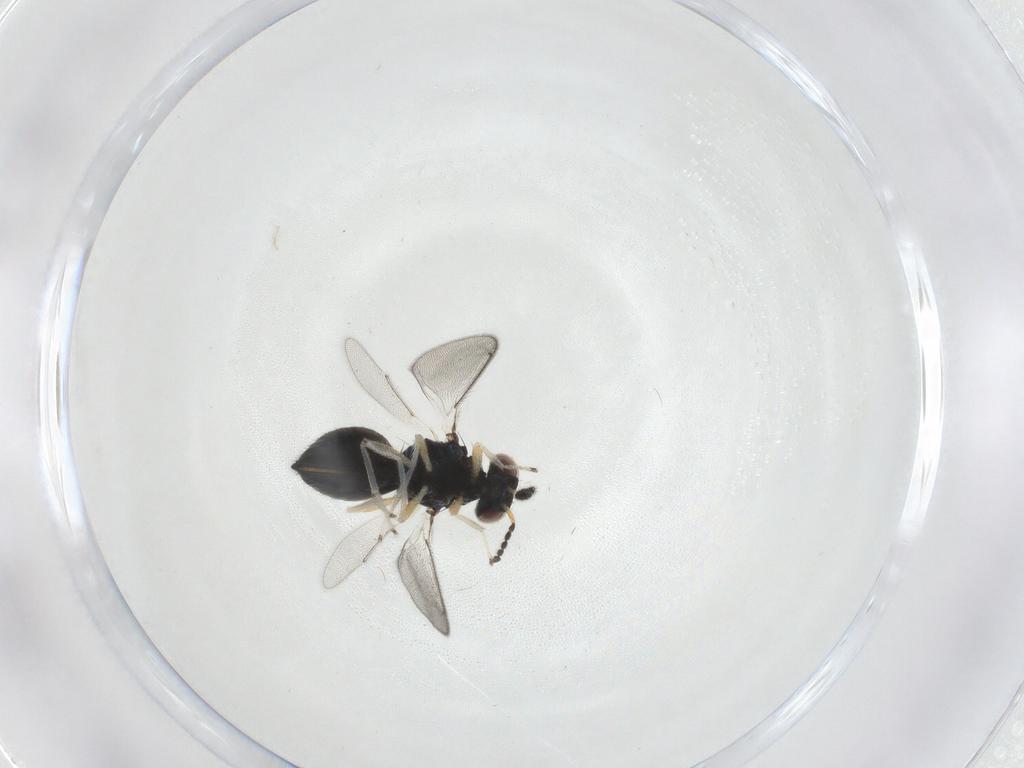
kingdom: Animalia
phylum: Arthropoda
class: Insecta
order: Hymenoptera
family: Eulophidae
